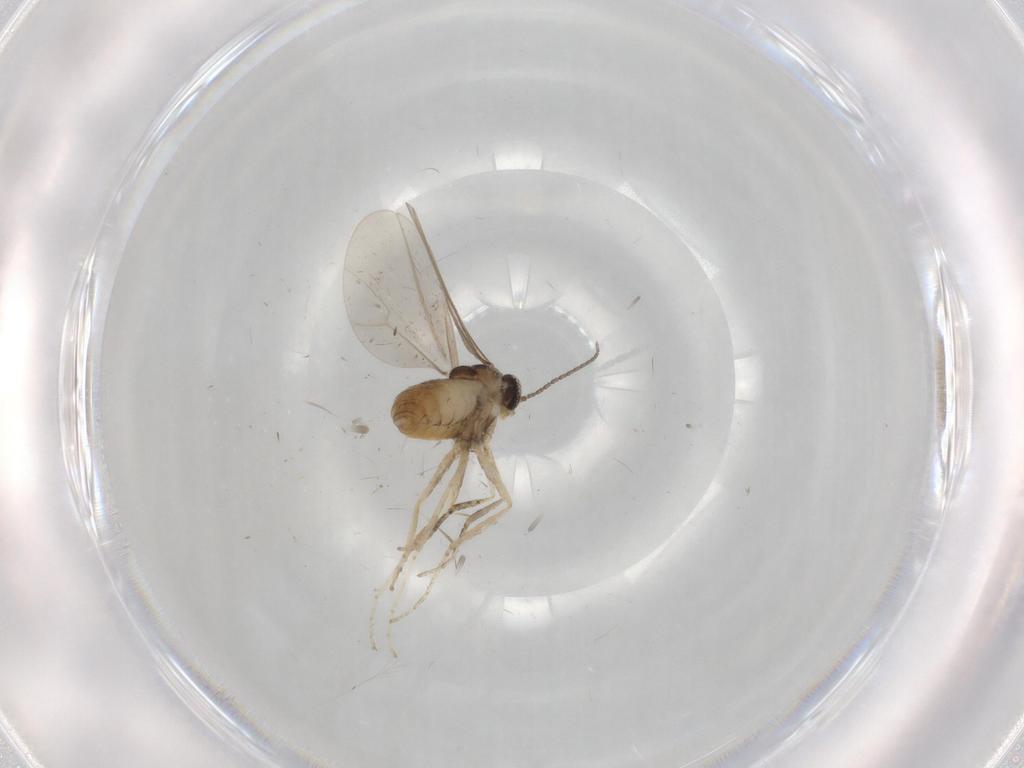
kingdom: Animalia
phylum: Arthropoda
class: Insecta
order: Diptera
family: Cecidomyiidae
